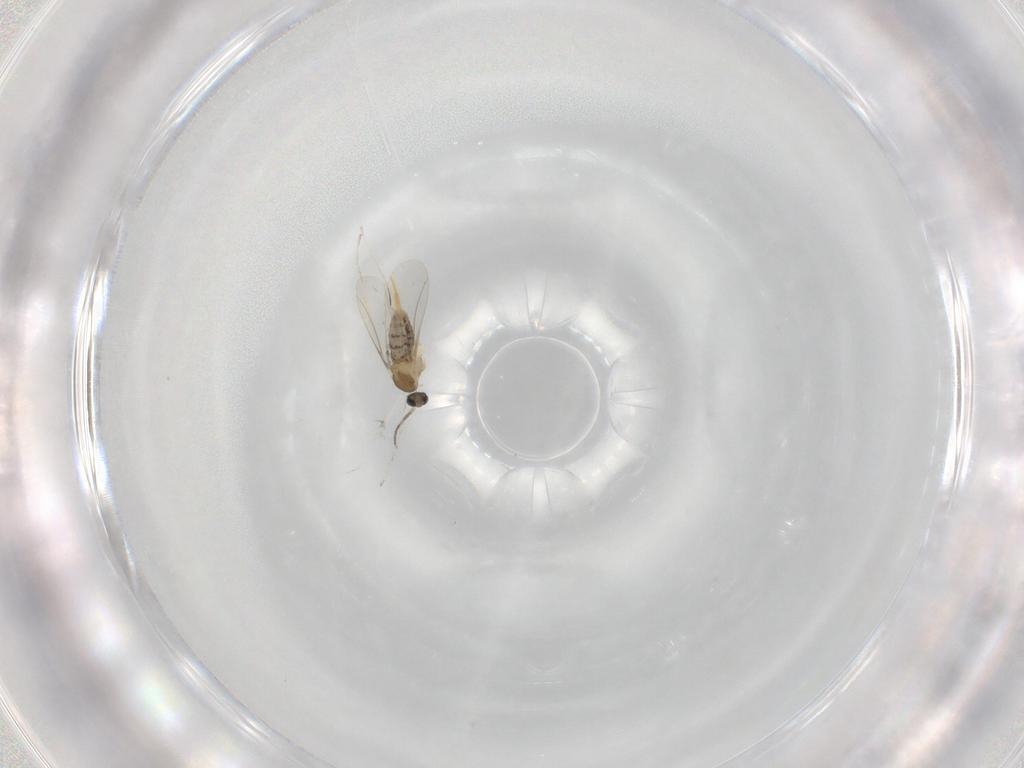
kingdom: Animalia
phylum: Arthropoda
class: Insecta
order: Diptera
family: Cecidomyiidae
